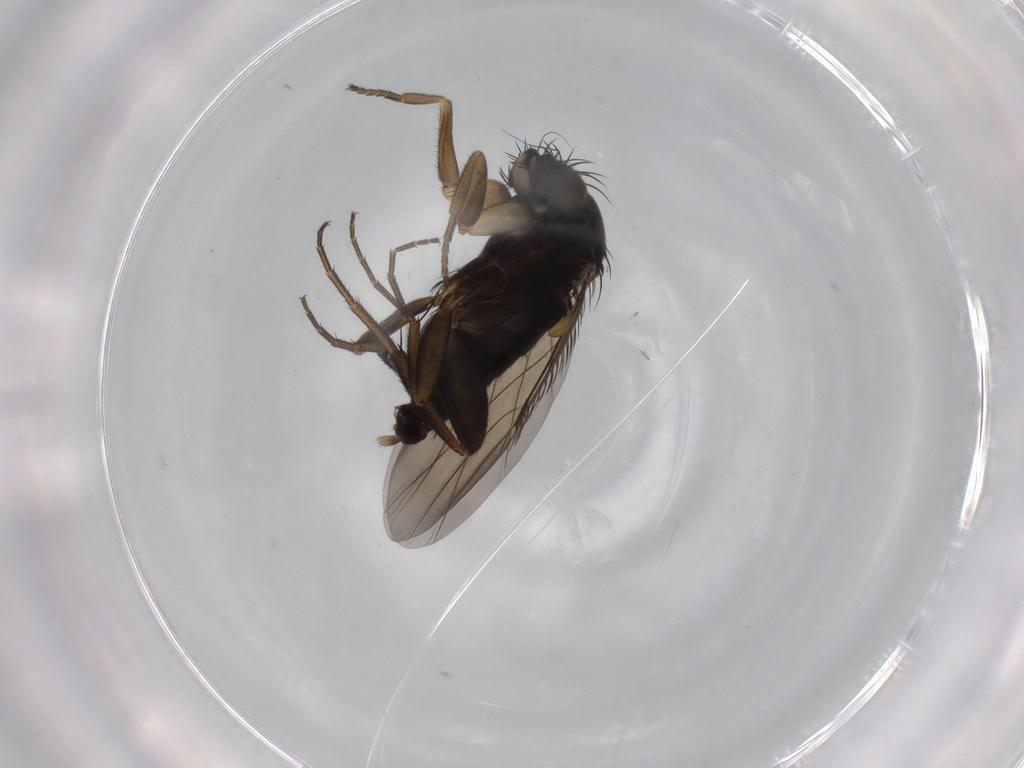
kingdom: Animalia
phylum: Arthropoda
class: Insecta
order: Diptera
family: Phoridae
